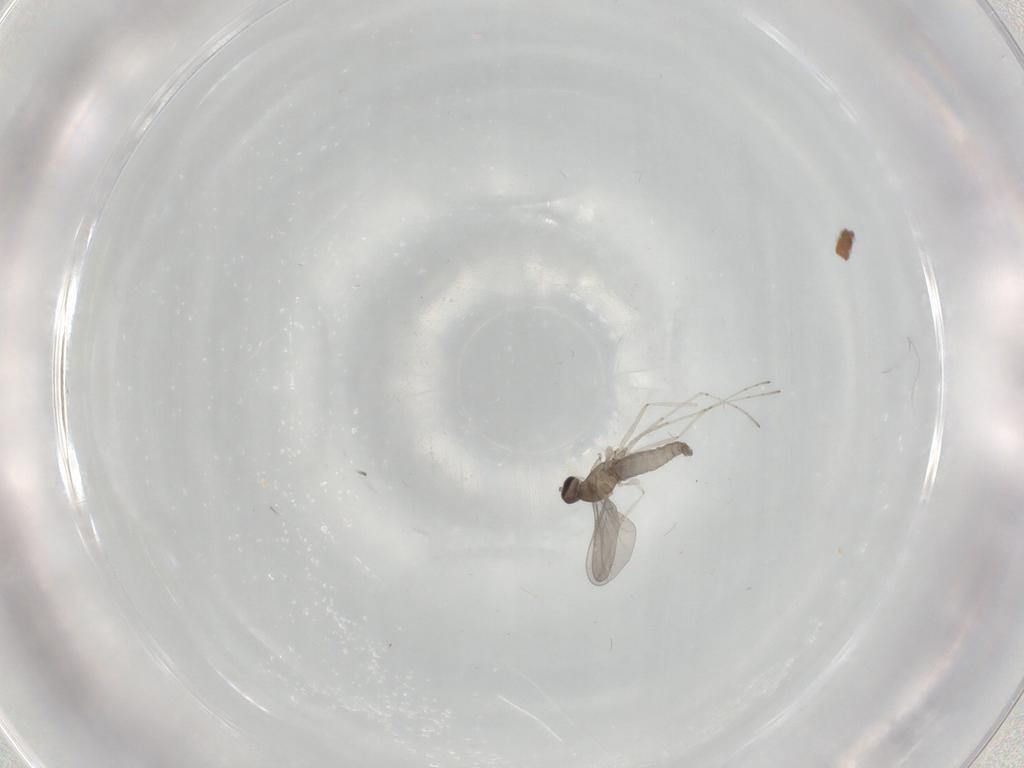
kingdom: Animalia
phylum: Arthropoda
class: Insecta
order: Diptera
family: Cecidomyiidae
